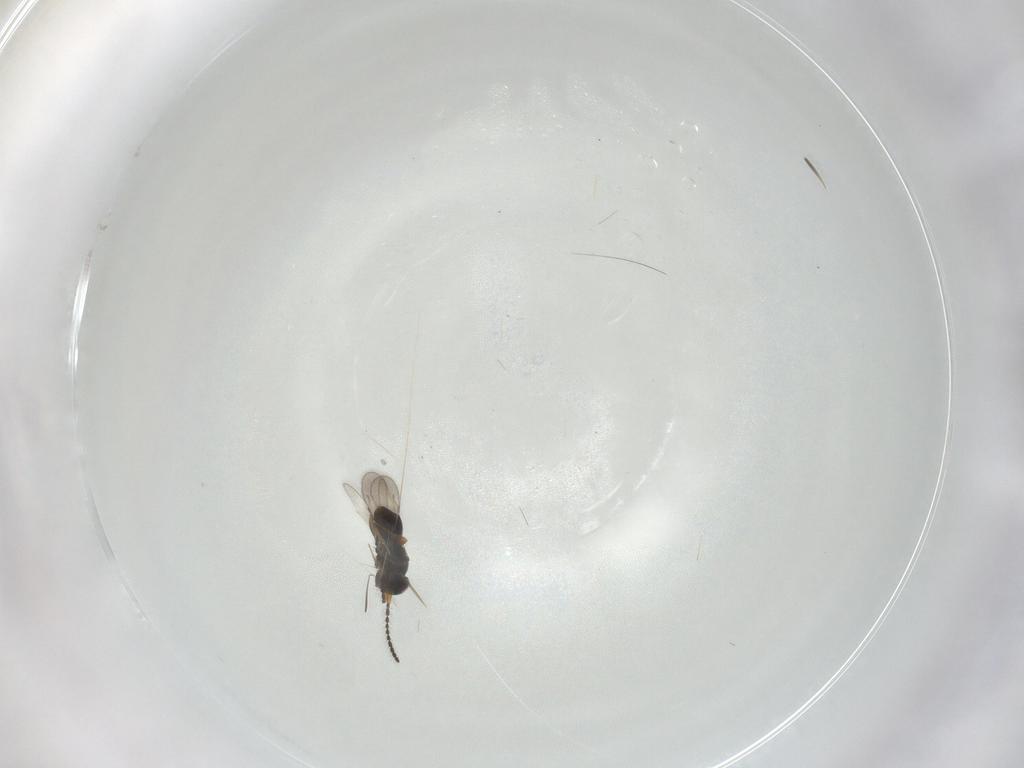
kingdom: Animalia
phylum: Arthropoda
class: Insecta
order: Diptera
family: Cecidomyiidae
